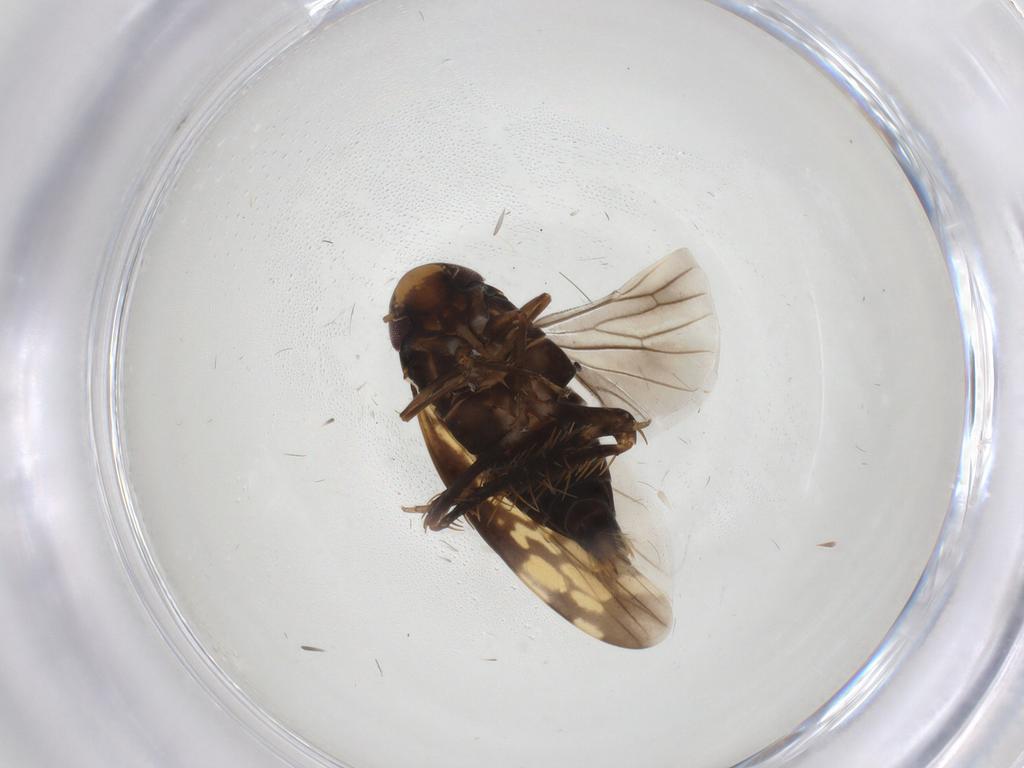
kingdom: Animalia
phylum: Arthropoda
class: Insecta
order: Hemiptera
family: Cicadellidae
